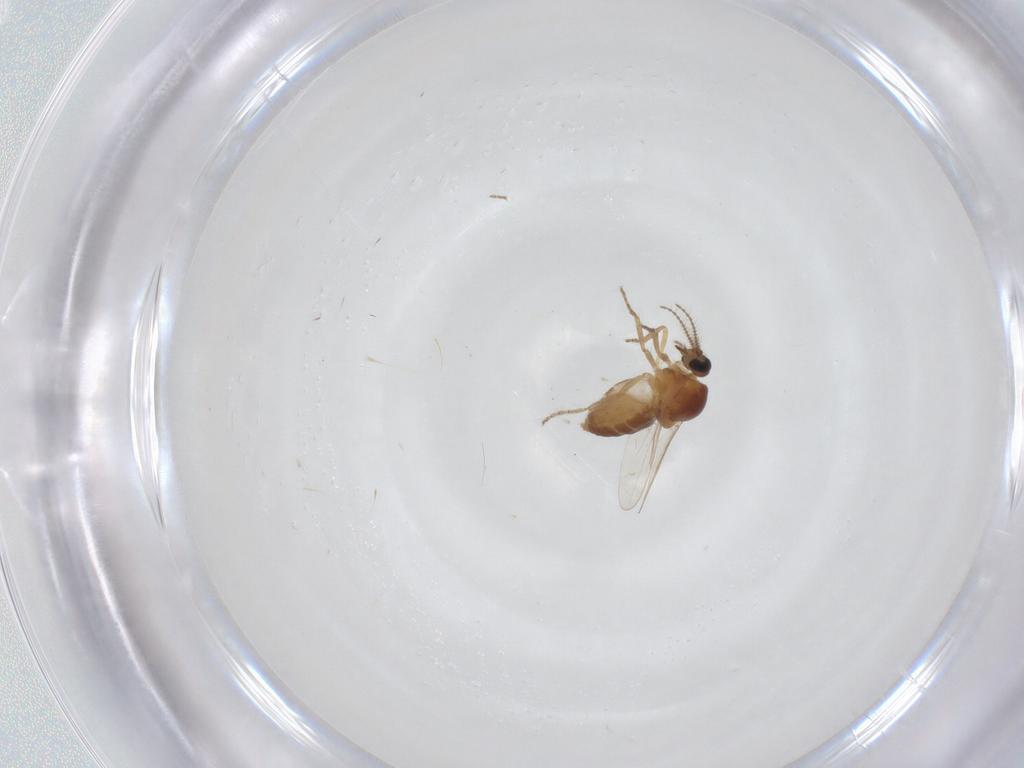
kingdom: Animalia
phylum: Arthropoda
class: Insecta
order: Diptera
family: Ceratopogonidae
